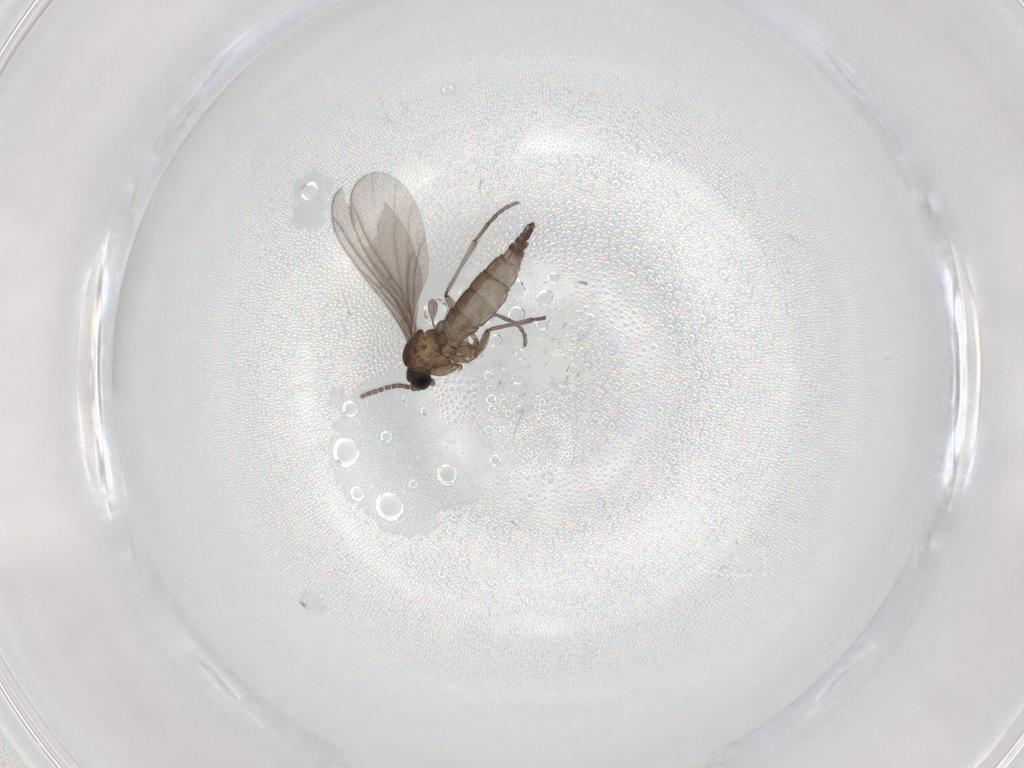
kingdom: Animalia
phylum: Arthropoda
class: Insecta
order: Diptera
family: Sciaridae
